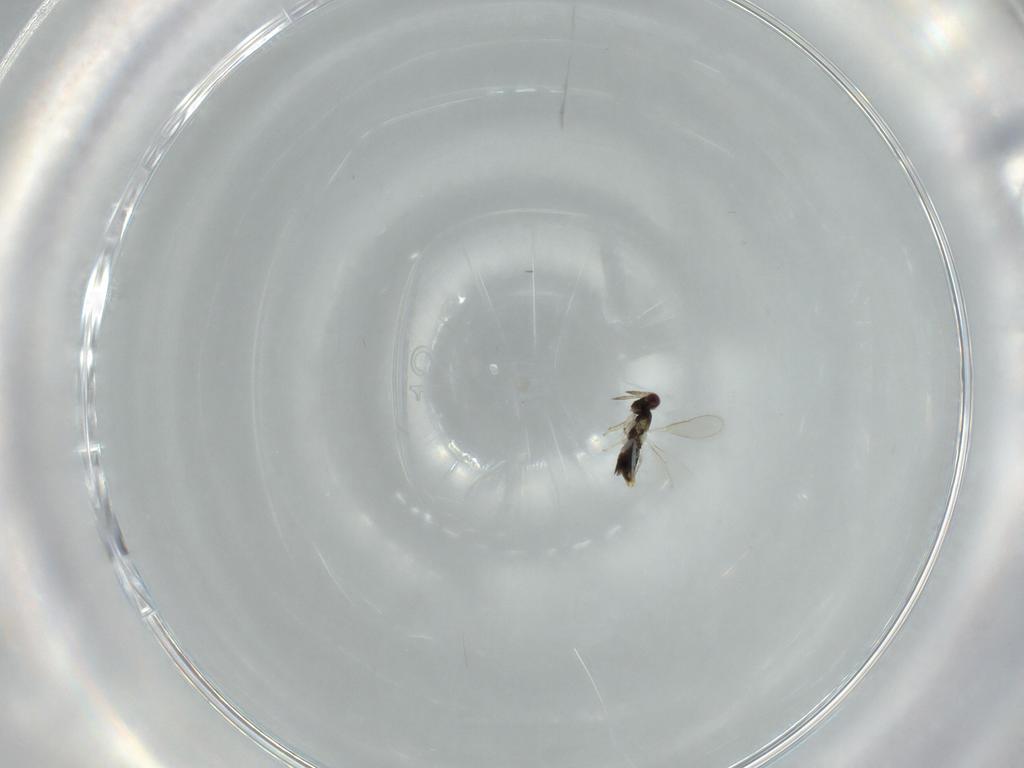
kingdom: Animalia
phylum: Arthropoda
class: Insecta
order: Hymenoptera
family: Aphelinidae
